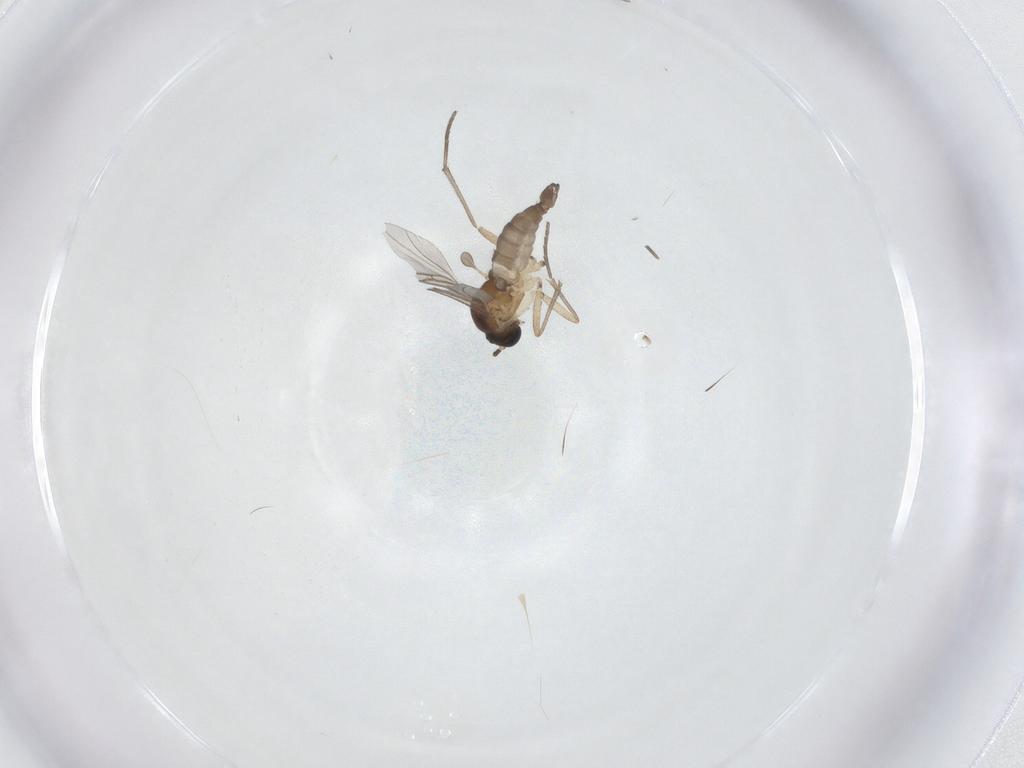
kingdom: Animalia
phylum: Arthropoda
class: Insecta
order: Diptera
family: Sciaridae
